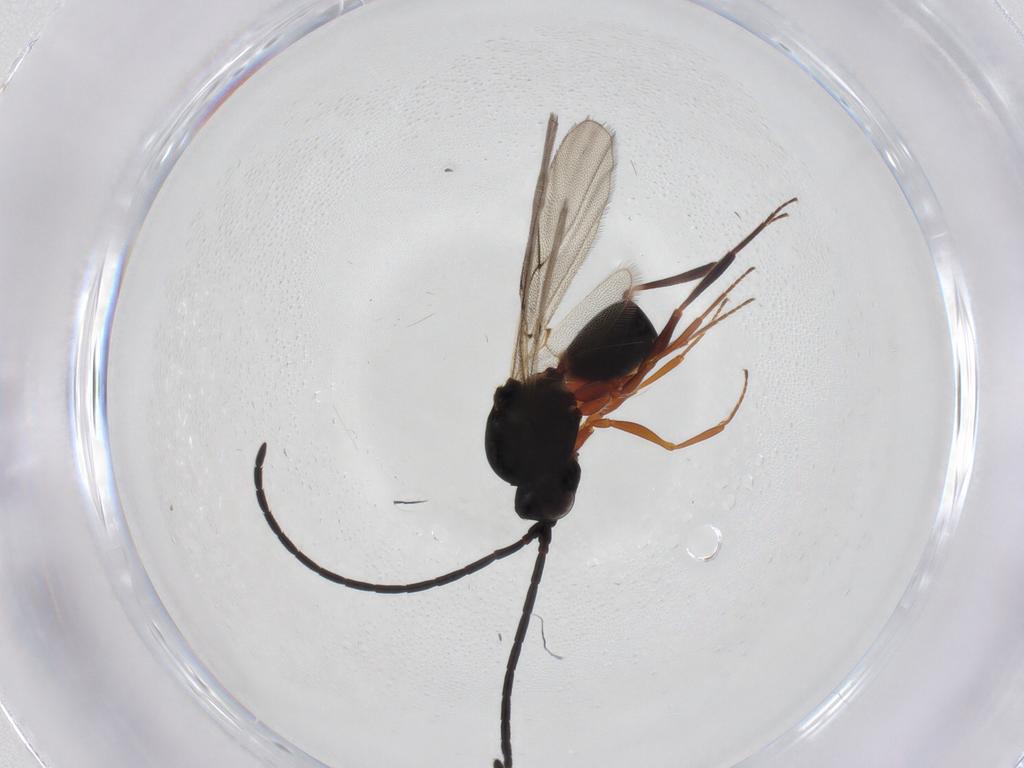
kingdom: Animalia
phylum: Arthropoda
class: Insecta
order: Hymenoptera
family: Figitidae
